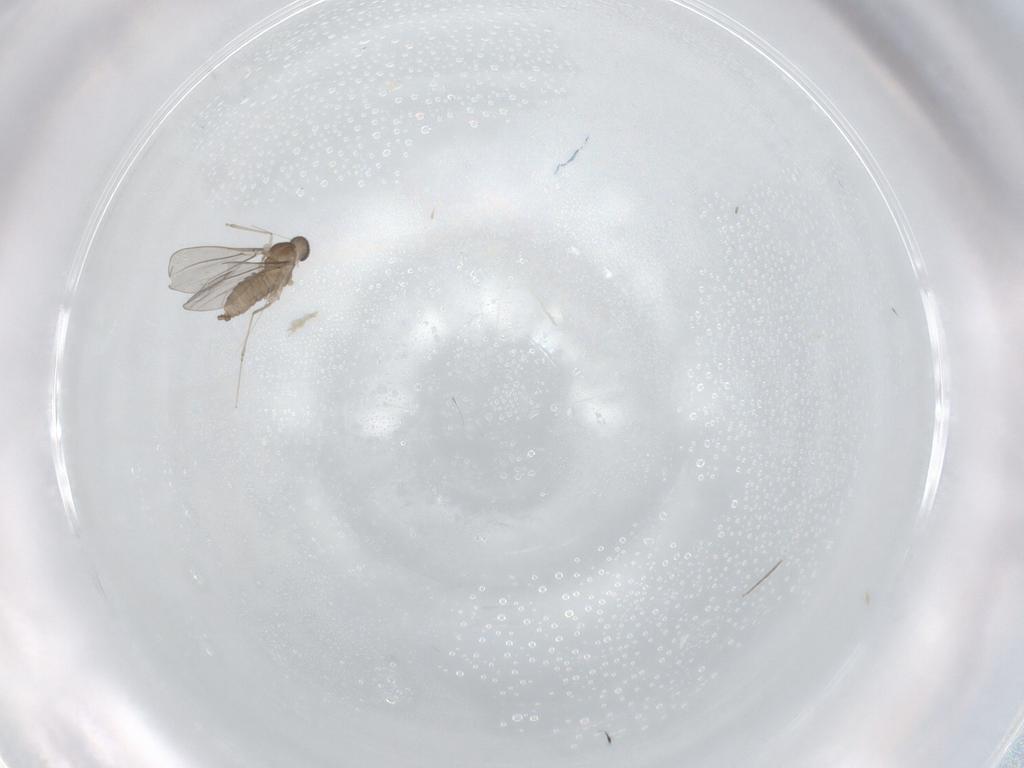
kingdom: Animalia
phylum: Arthropoda
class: Insecta
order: Diptera
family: Cecidomyiidae
